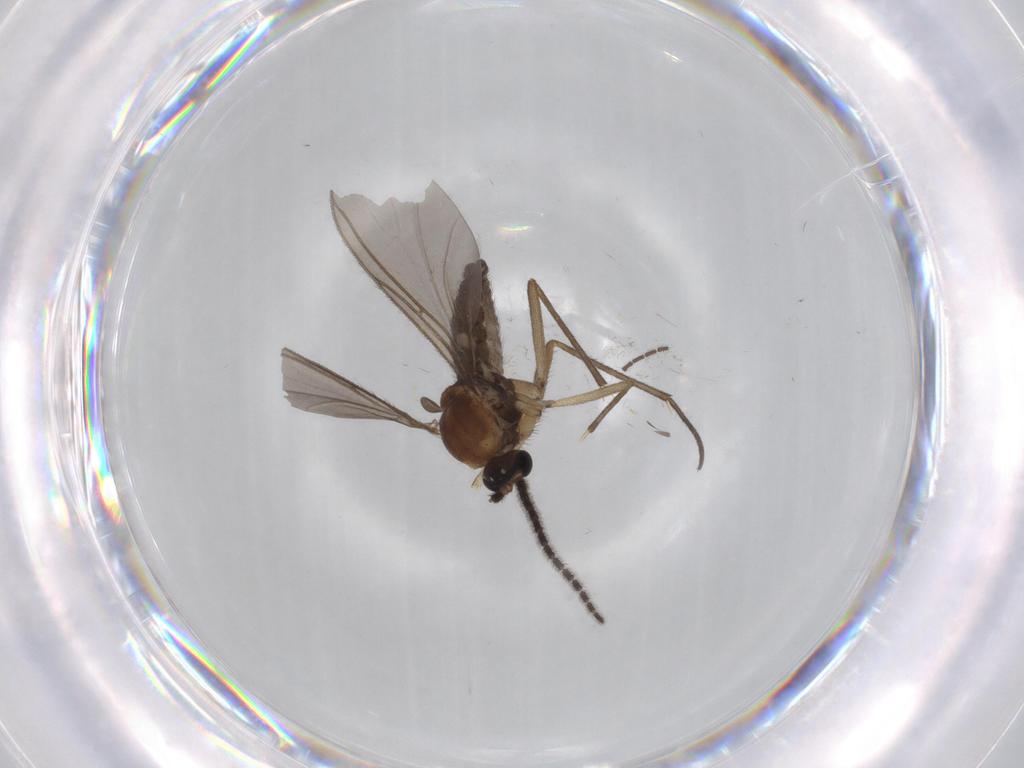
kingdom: Animalia
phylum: Arthropoda
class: Insecta
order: Diptera
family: Sciaridae
